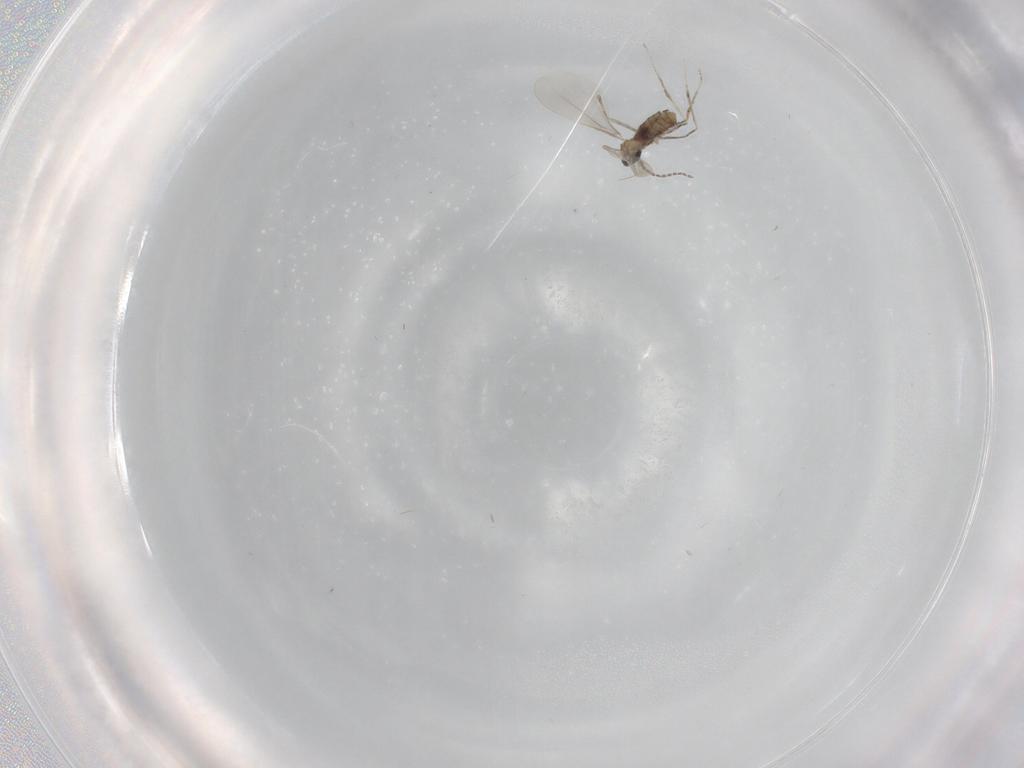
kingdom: Animalia
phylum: Arthropoda
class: Insecta
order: Diptera
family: Cecidomyiidae
